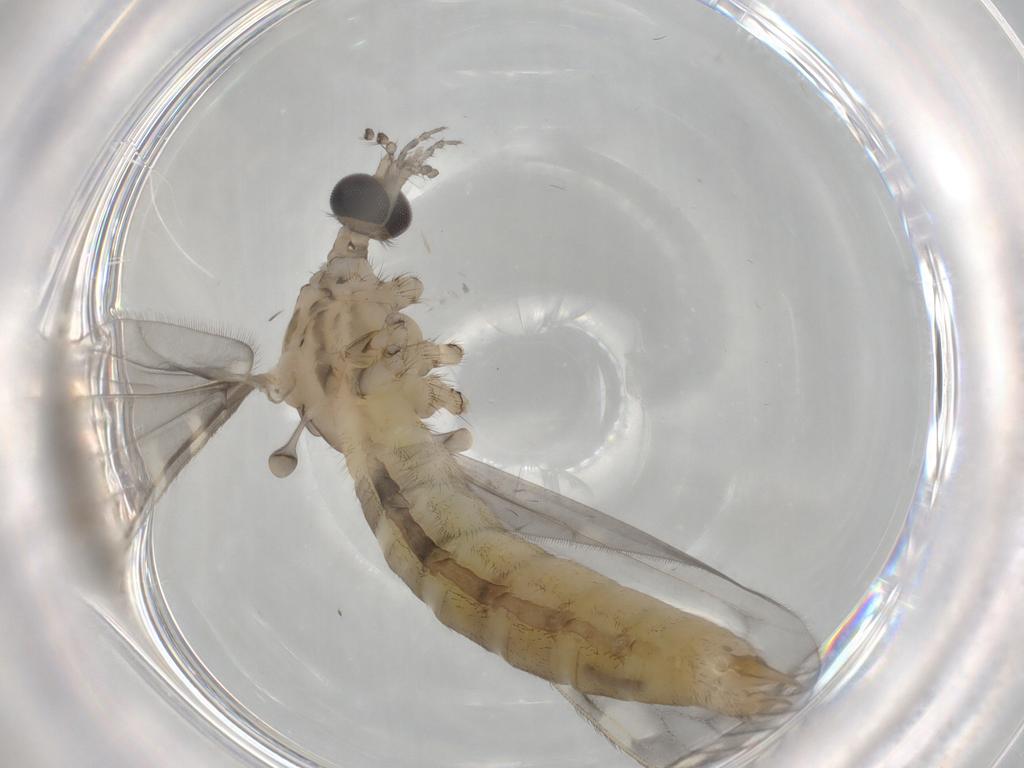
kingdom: Animalia
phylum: Arthropoda
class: Insecta
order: Diptera
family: Limoniidae
